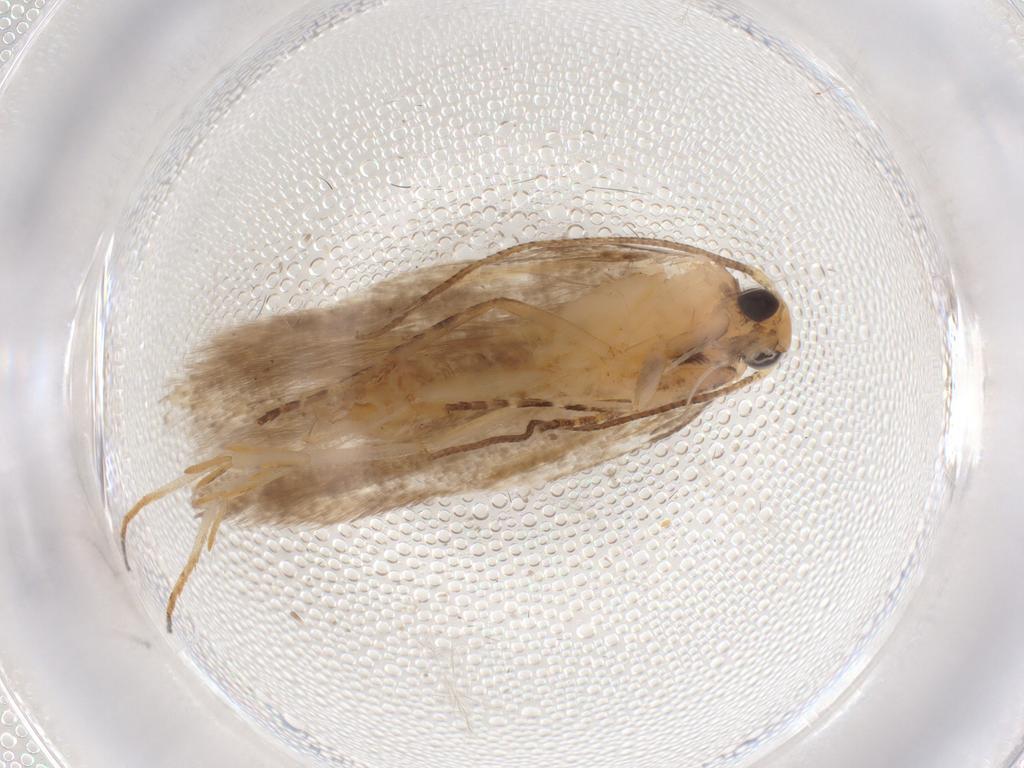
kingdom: Animalia
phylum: Arthropoda
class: Insecta
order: Lepidoptera
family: Gelechiidae
